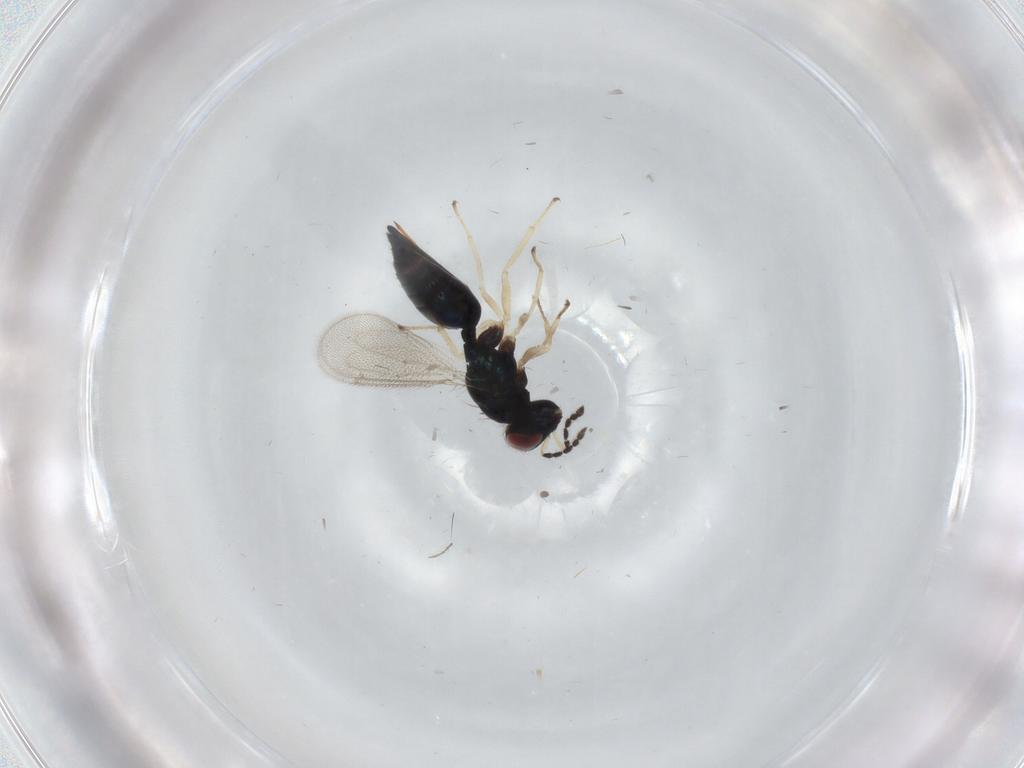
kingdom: Animalia
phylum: Arthropoda
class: Insecta
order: Hymenoptera
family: Eulophidae
